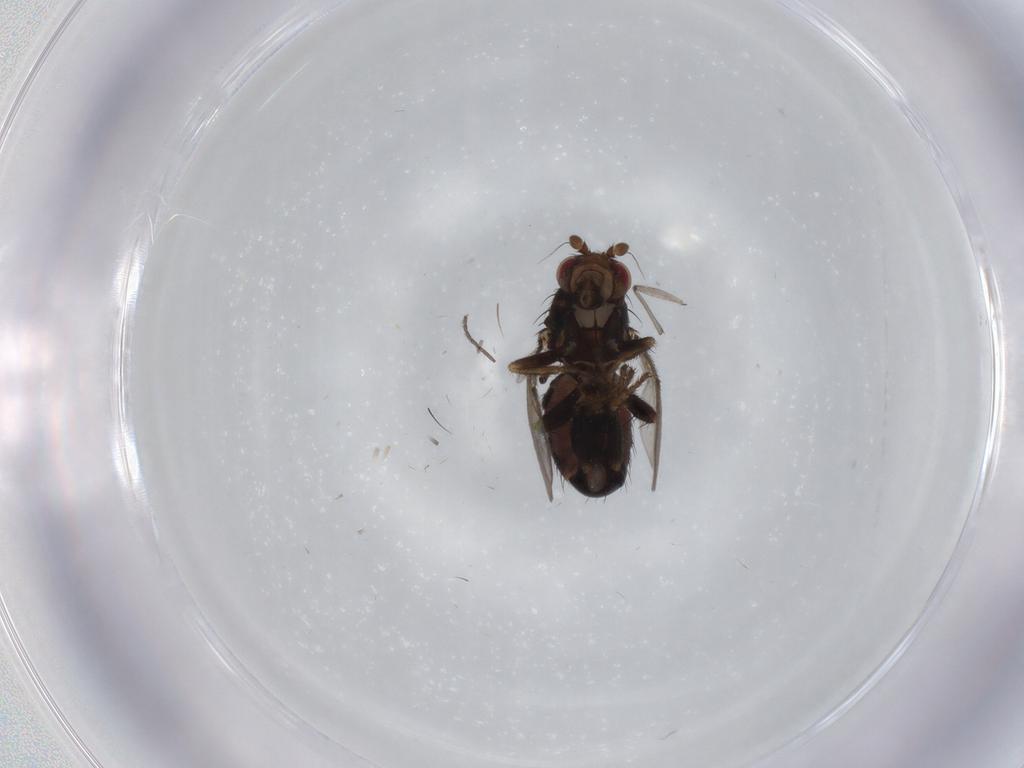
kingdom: Animalia
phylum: Arthropoda
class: Insecta
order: Diptera
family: Sphaeroceridae
